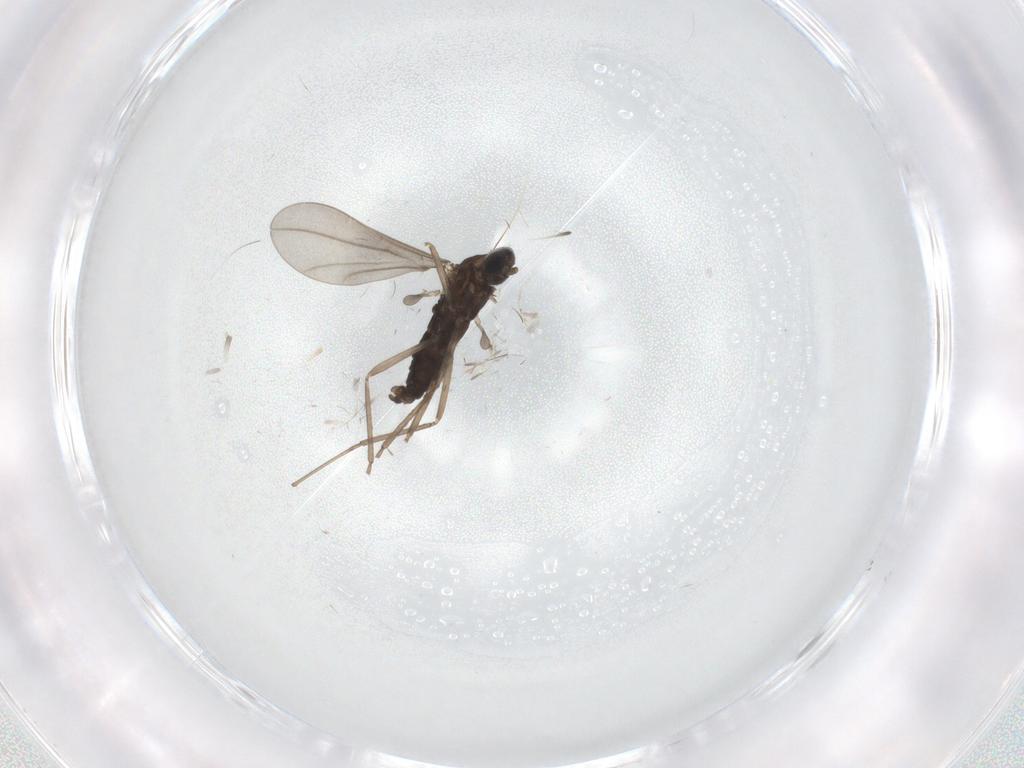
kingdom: Animalia
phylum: Arthropoda
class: Insecta
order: Diptera
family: Cecidomyiidae
